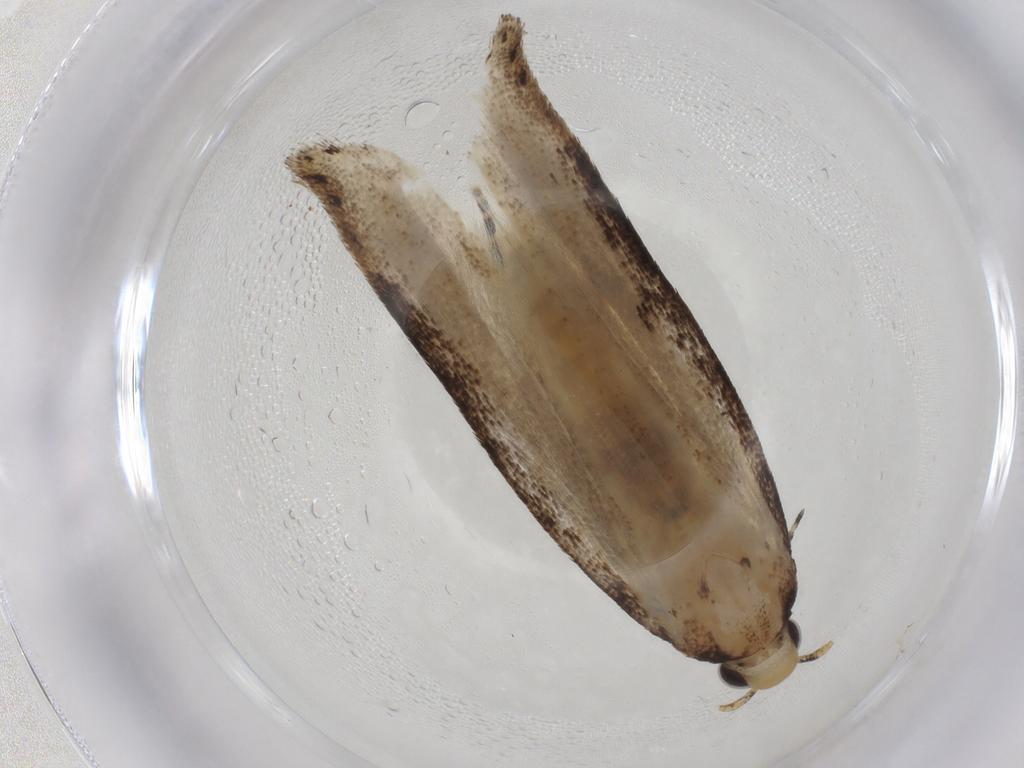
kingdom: Animalia
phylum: Arthropoda
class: Insecta
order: Lepidoptera
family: Gelechiidae
